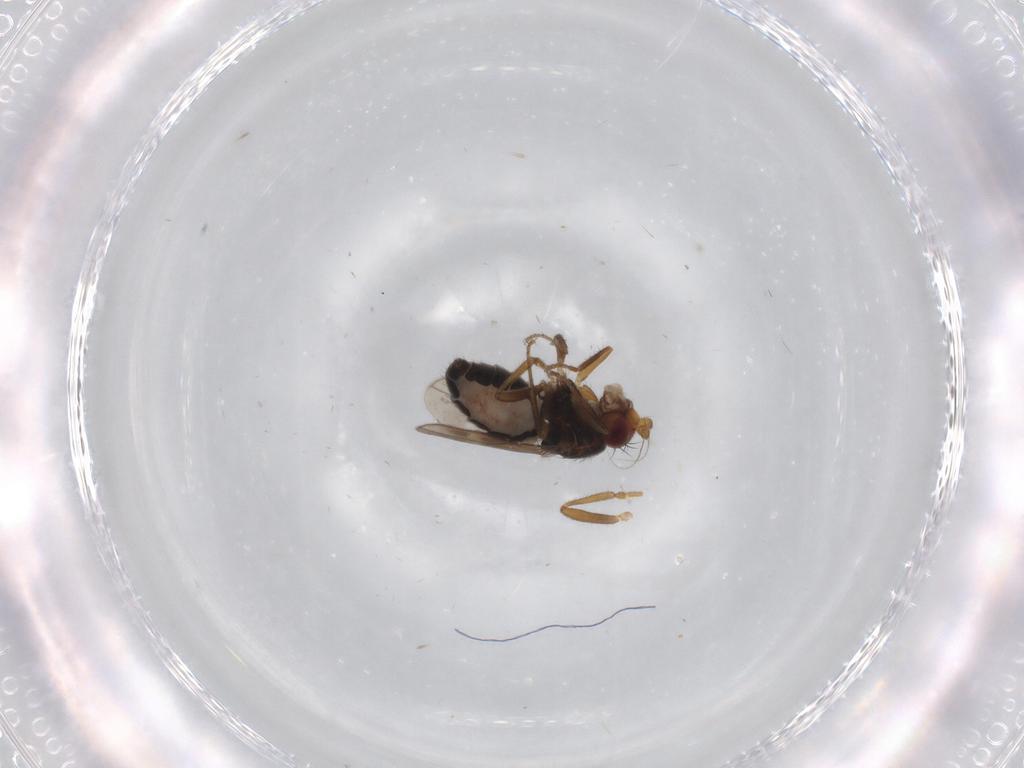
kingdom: Animalia
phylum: Arthropoda
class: Insecta
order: Diptera
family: Sphaeroceridae
